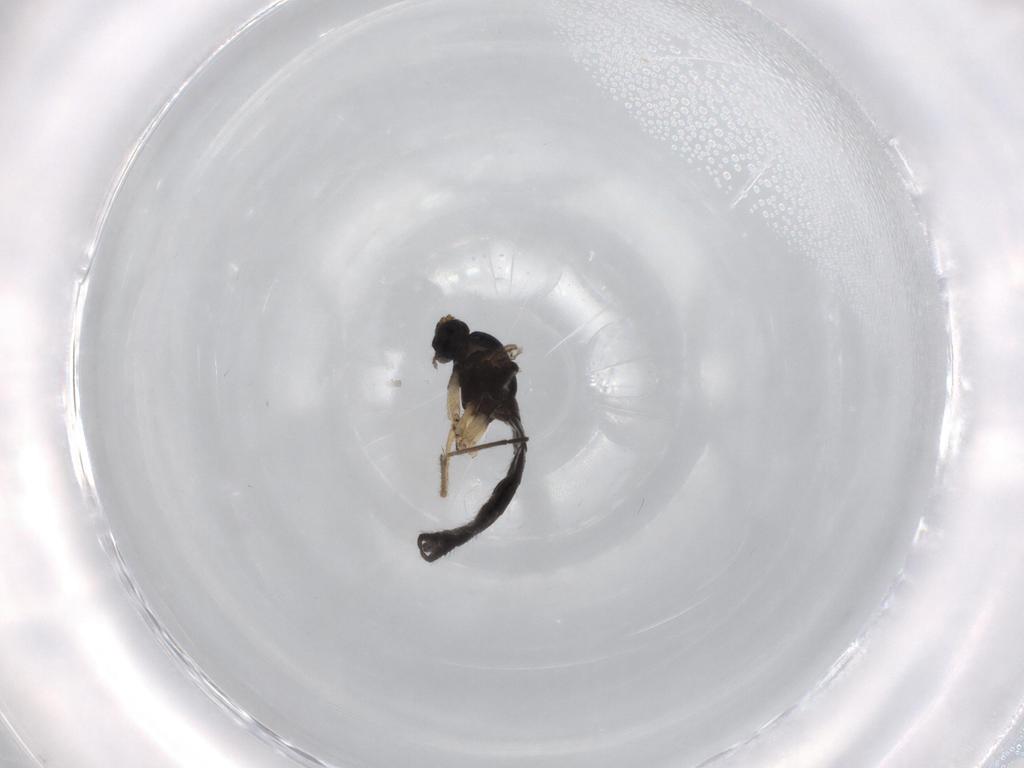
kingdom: Animalia
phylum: Arthropoda
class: Insecta
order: Diptera
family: Sciaridae
